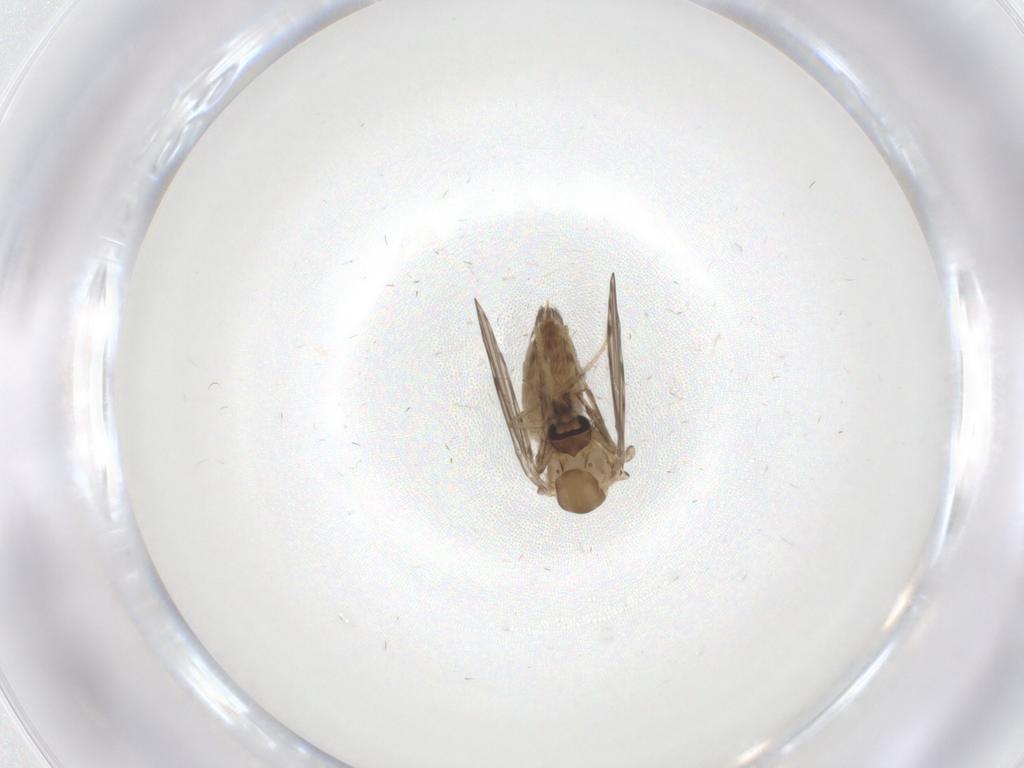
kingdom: Animalia
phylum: Arthropoda
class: Insecta
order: Diptera
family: Psychodidae
